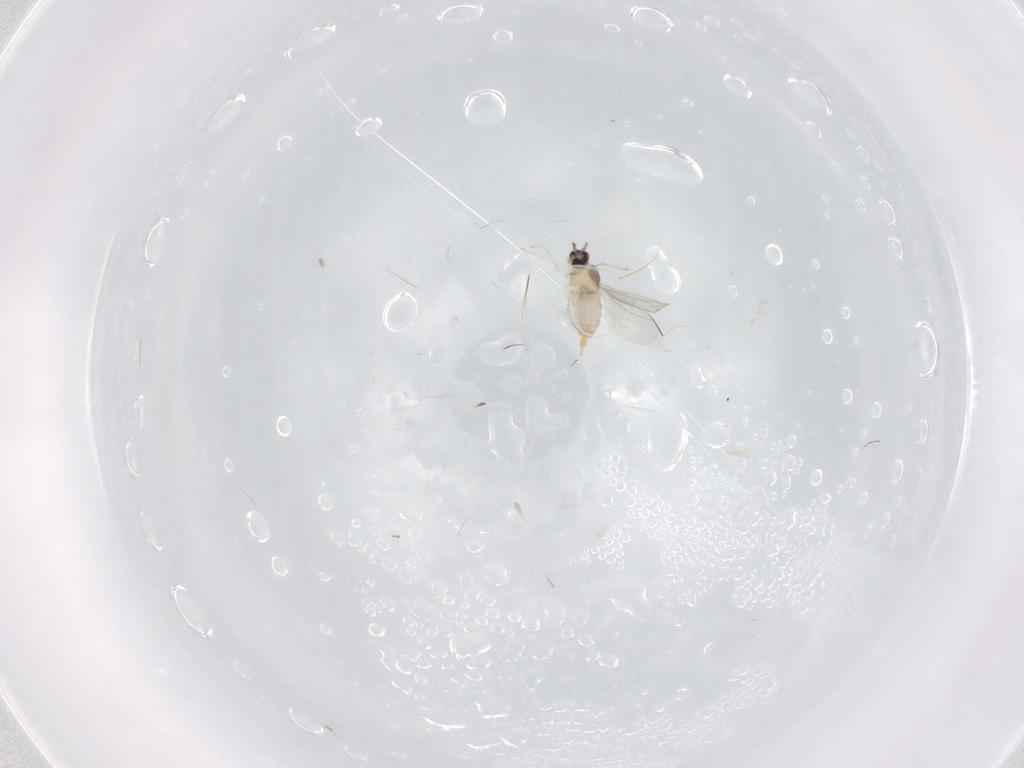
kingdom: Animalia
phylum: Arthropoda
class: Insecta
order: Diptera
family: Cecidomyiidae
